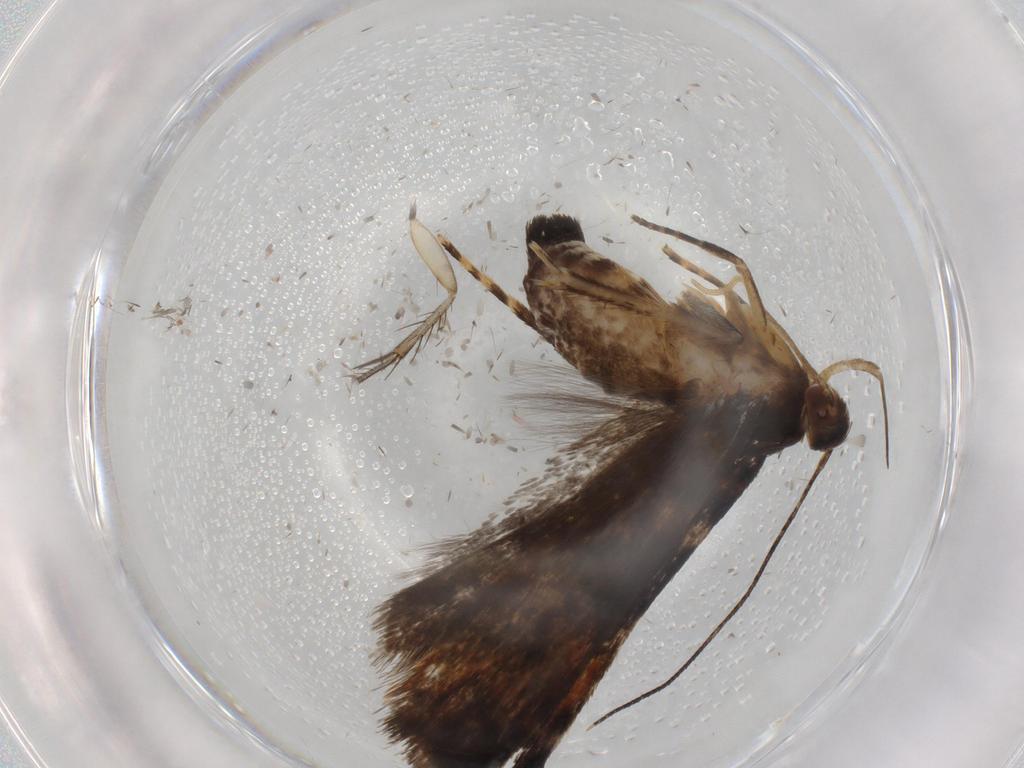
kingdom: Animalia
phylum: Arthropoda
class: Insecta
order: Lepidoptera
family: Gelechiidae
